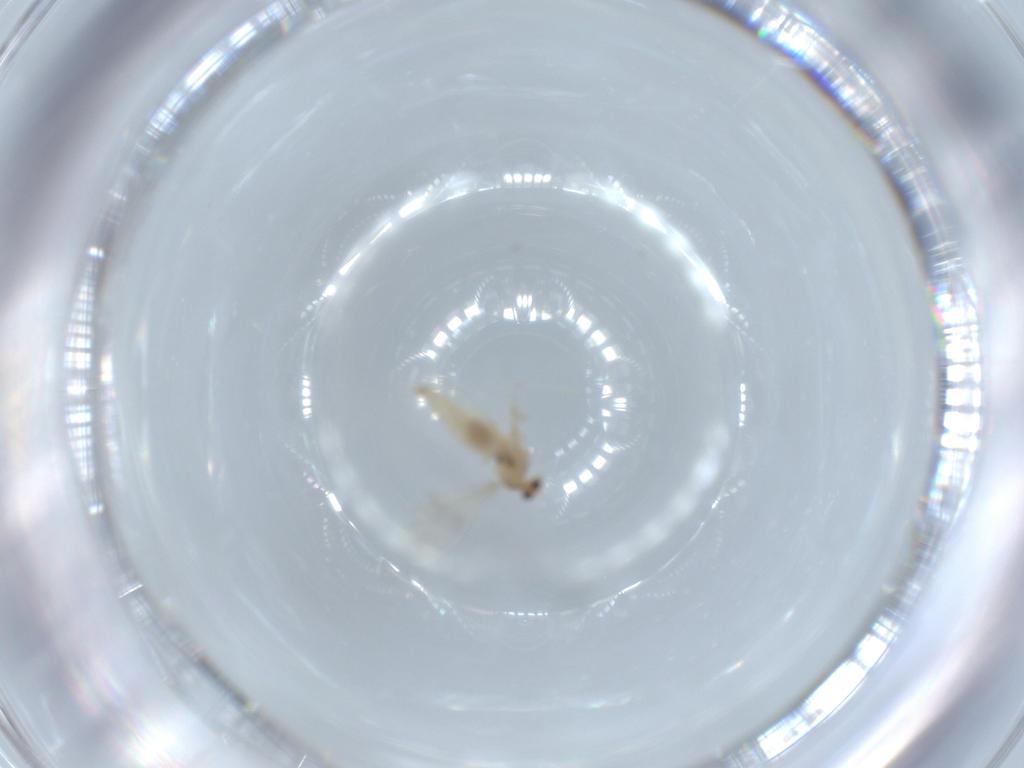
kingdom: Animalia
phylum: Arthropoda
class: Insecta
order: Diptera
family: Cecidomyiidae
